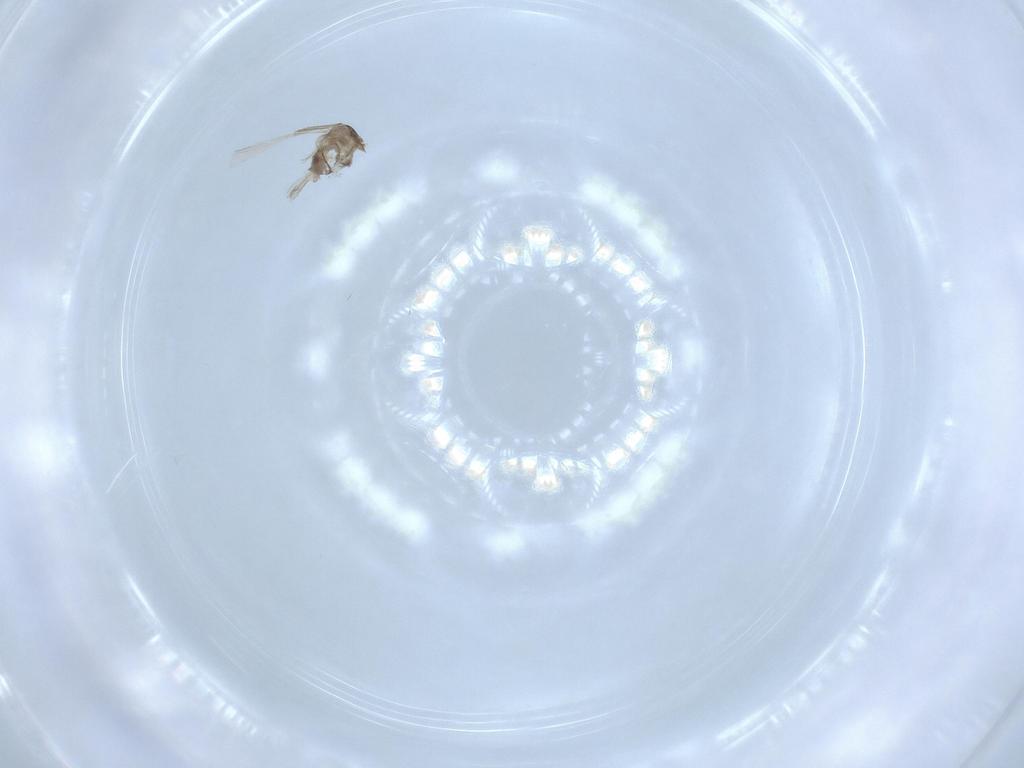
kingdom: Animalia
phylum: Arthropoda
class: Insecta
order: Diptera
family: Cecidomyiidae
